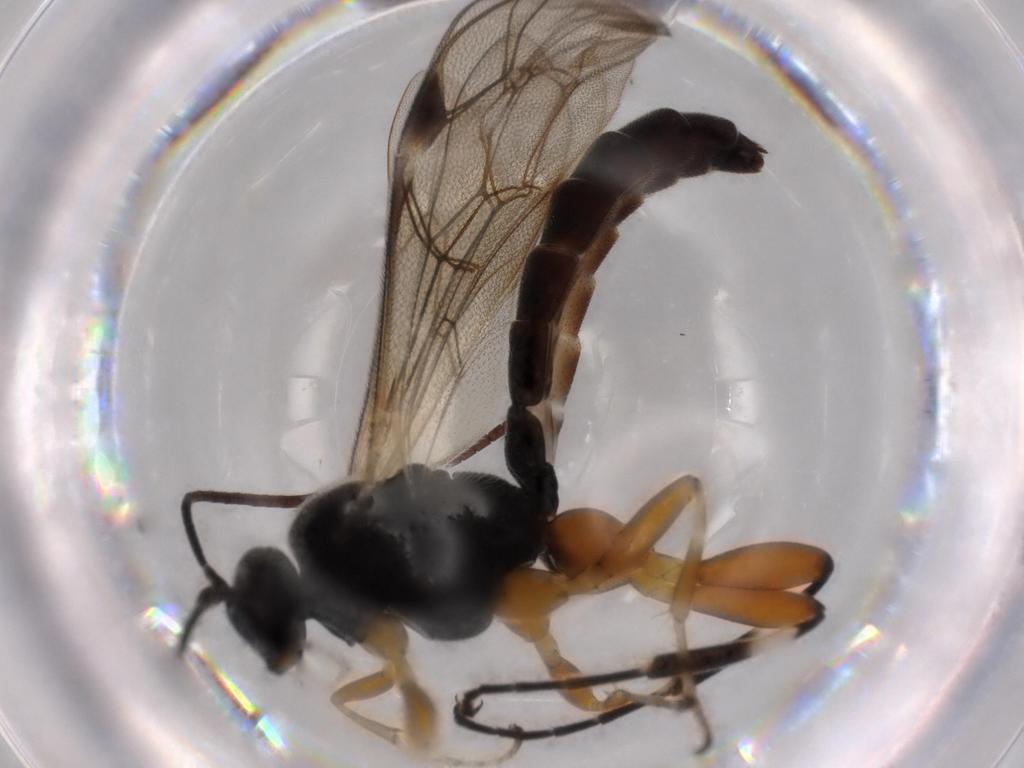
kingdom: Animalia
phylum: Arthropoda
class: Insecta
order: Hymenoptera
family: Ichneumonidae
